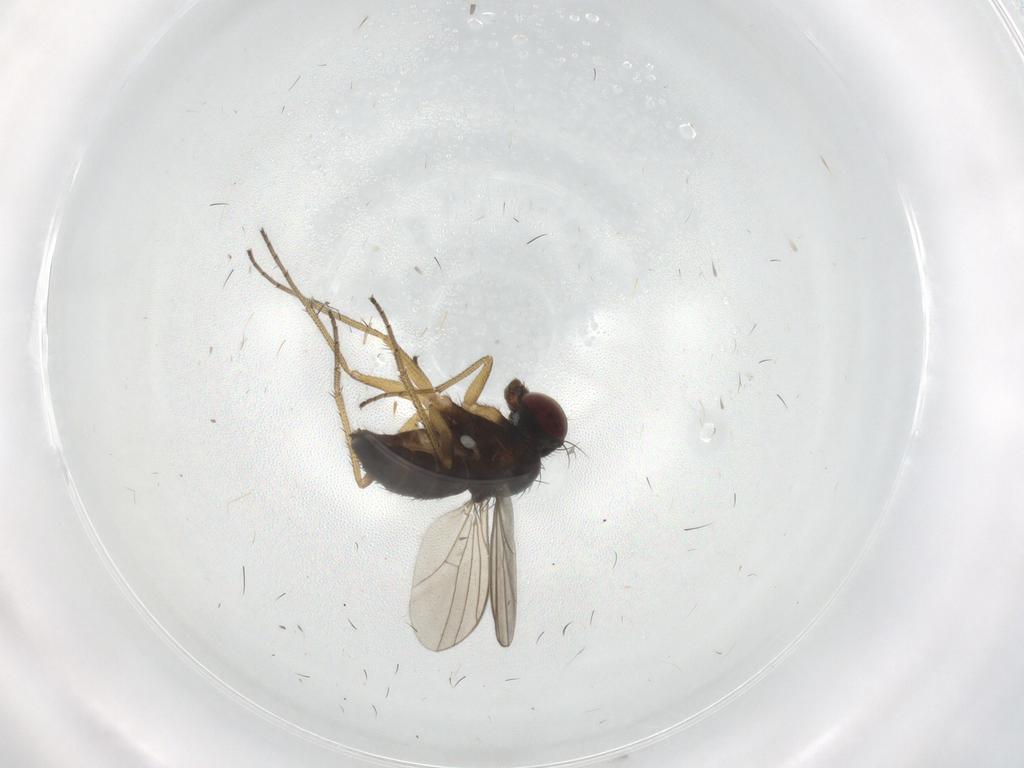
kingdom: Animalia
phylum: Arthropoda
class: Insecta
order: Diptera
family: Dolichopodidae
